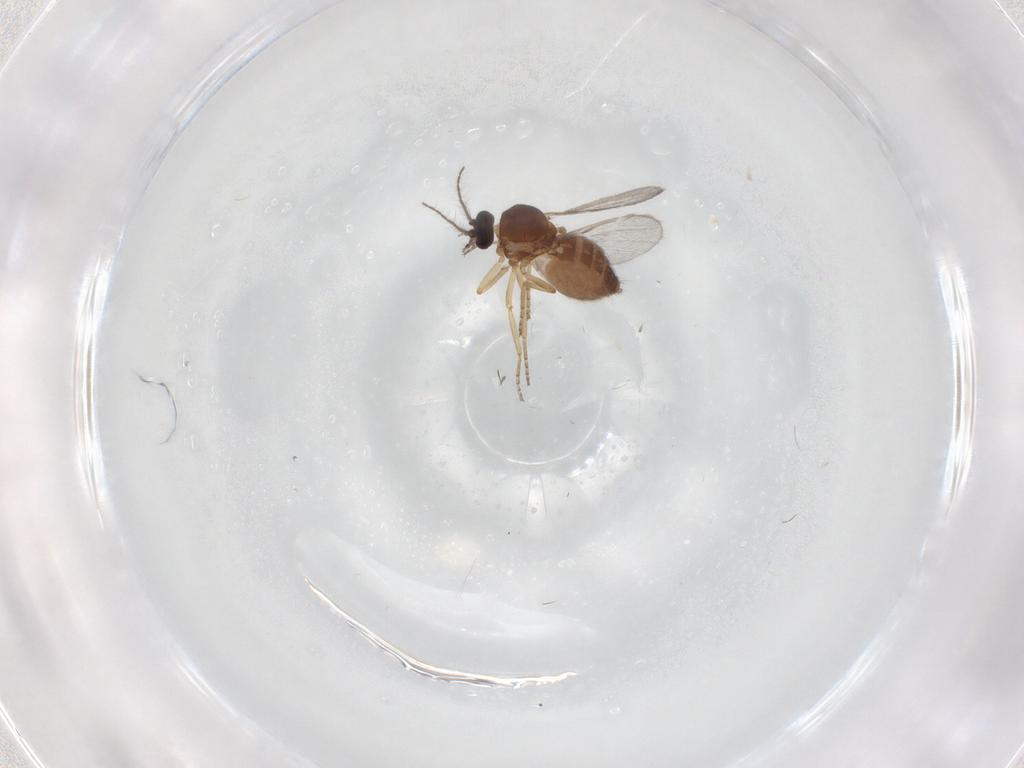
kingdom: Animalia
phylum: Arthropoda
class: Insecta
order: Diptera
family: Ceratopogonidae
